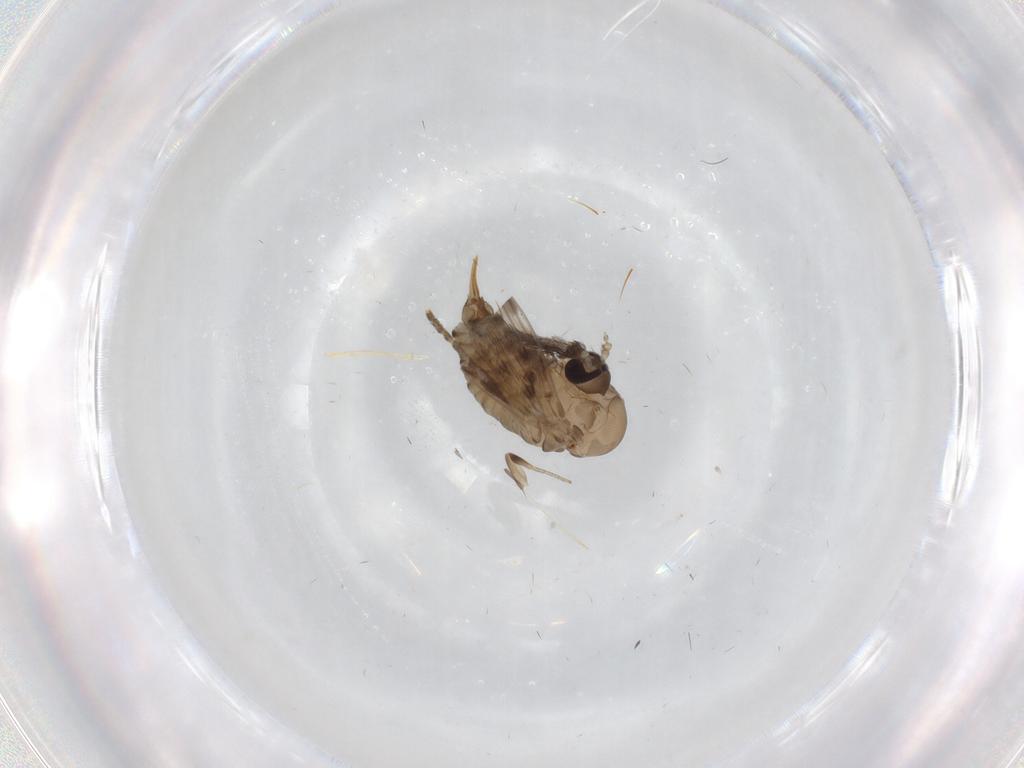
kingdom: Animalia
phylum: Arthropoda
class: Insecta
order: Diptera
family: Psychodidae
